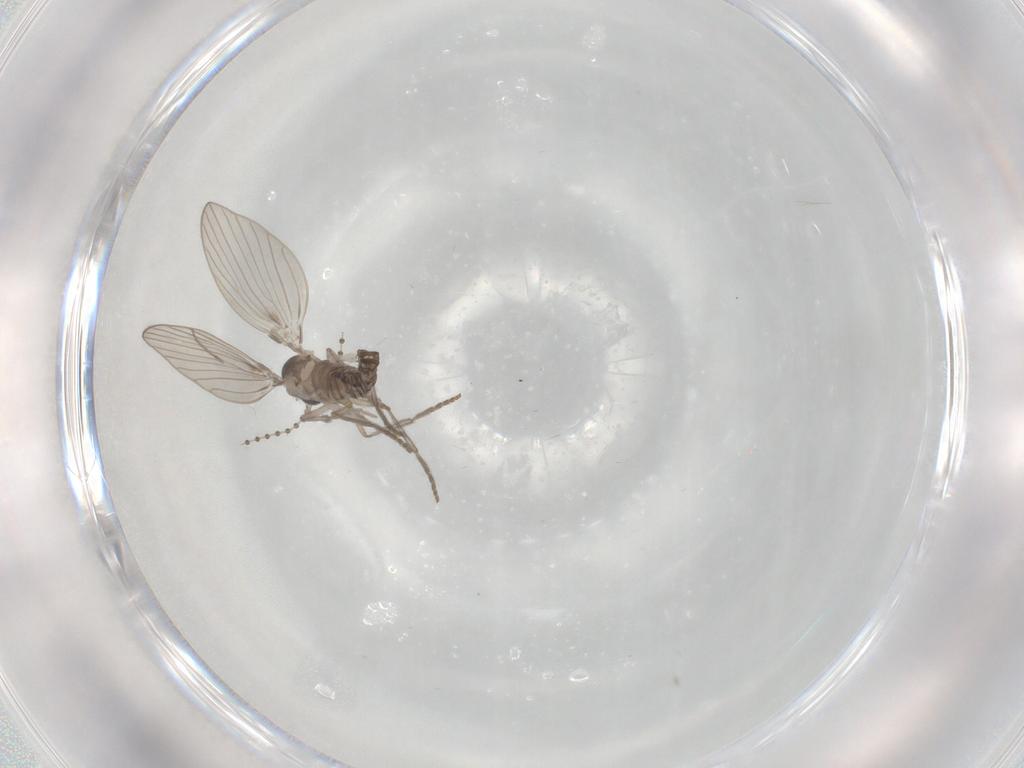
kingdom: Animalia
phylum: Arthropoda
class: Insecta
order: Diptera
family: Psychodidae
